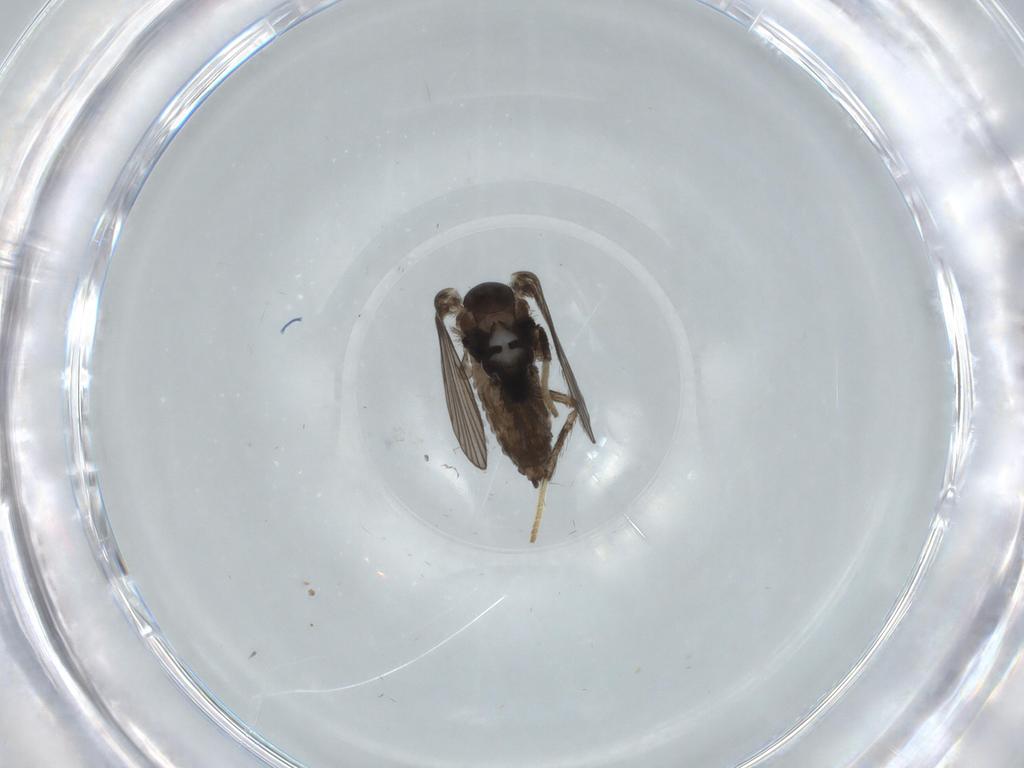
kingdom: Animalia
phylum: Arthropoda
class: Insecta
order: Diptera
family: Psychodidae
